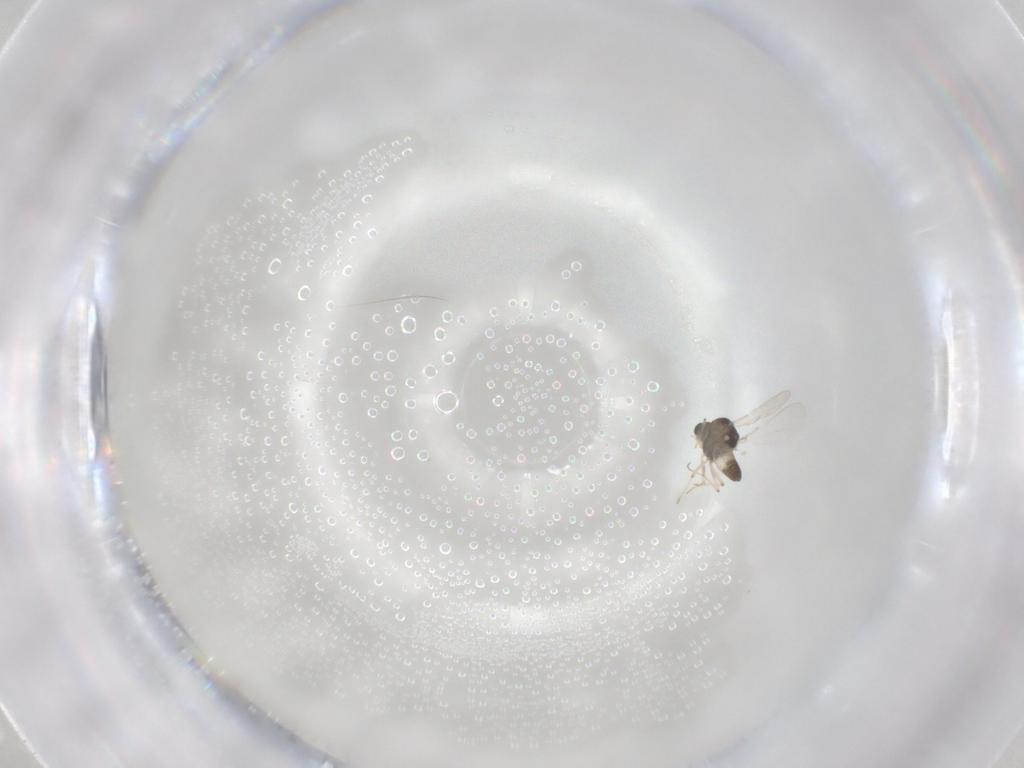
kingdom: Animalia
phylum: Arthropoda
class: Insecta
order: Diptera
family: Chironomidae
